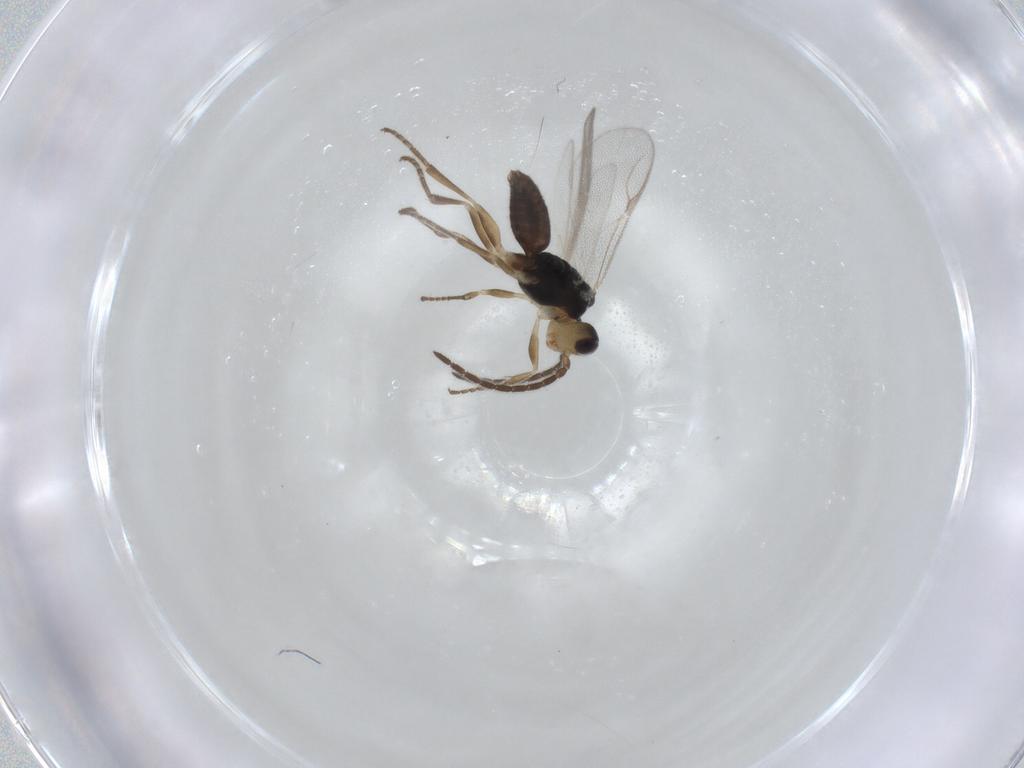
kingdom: Animalia
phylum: Arthropoda
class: Insecta
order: Hymenoptera
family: Dryinidae
